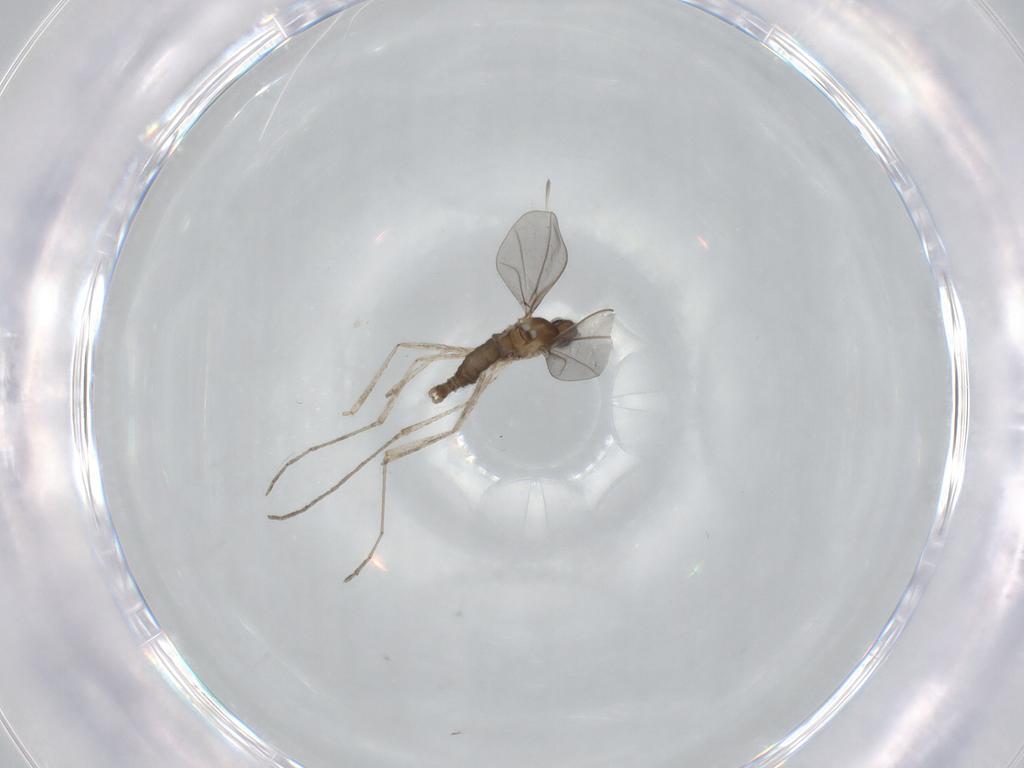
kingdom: Animalia
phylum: Arthropoda
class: Insecta
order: Diptera
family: Cecidomyiidae
